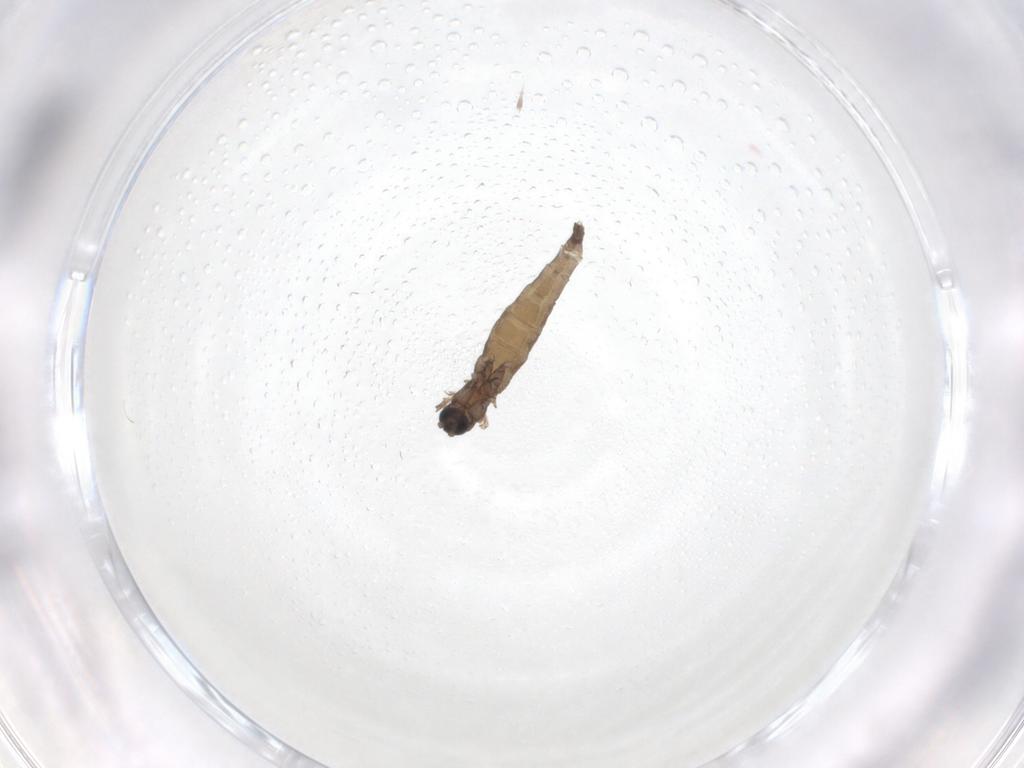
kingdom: Animalia
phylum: Arthropoda
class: Insecta
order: Diptera
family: Sciaridae
